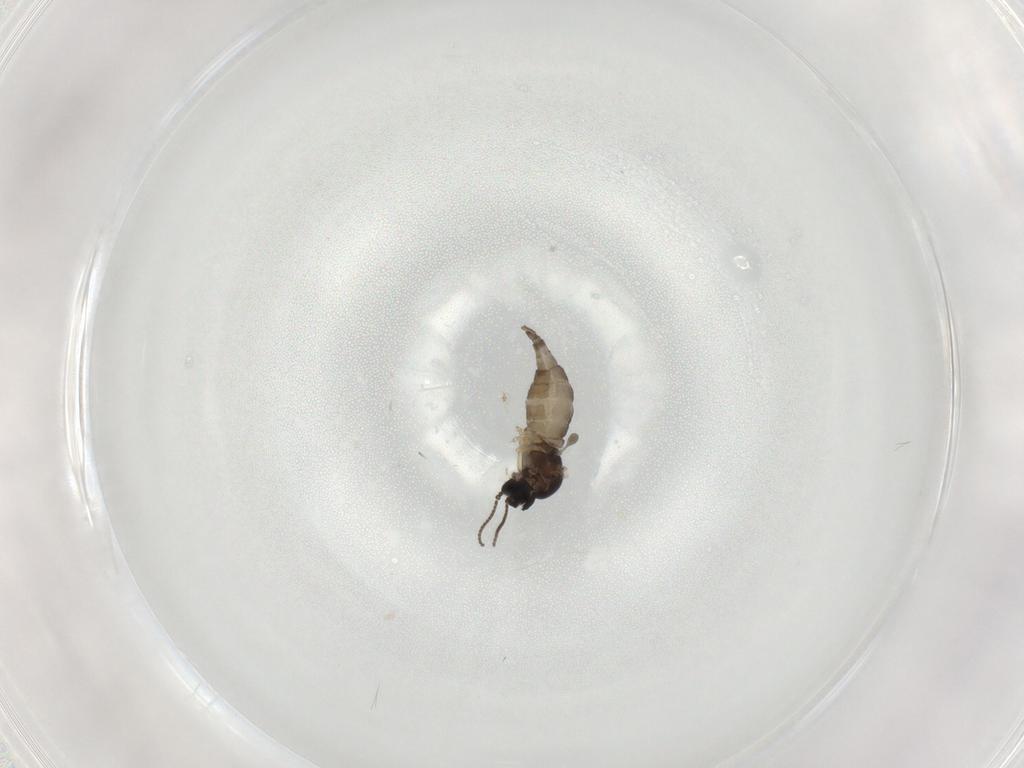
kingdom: Animalia
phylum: Arthropoda
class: Insecta
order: Diptera
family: Sciaridae
